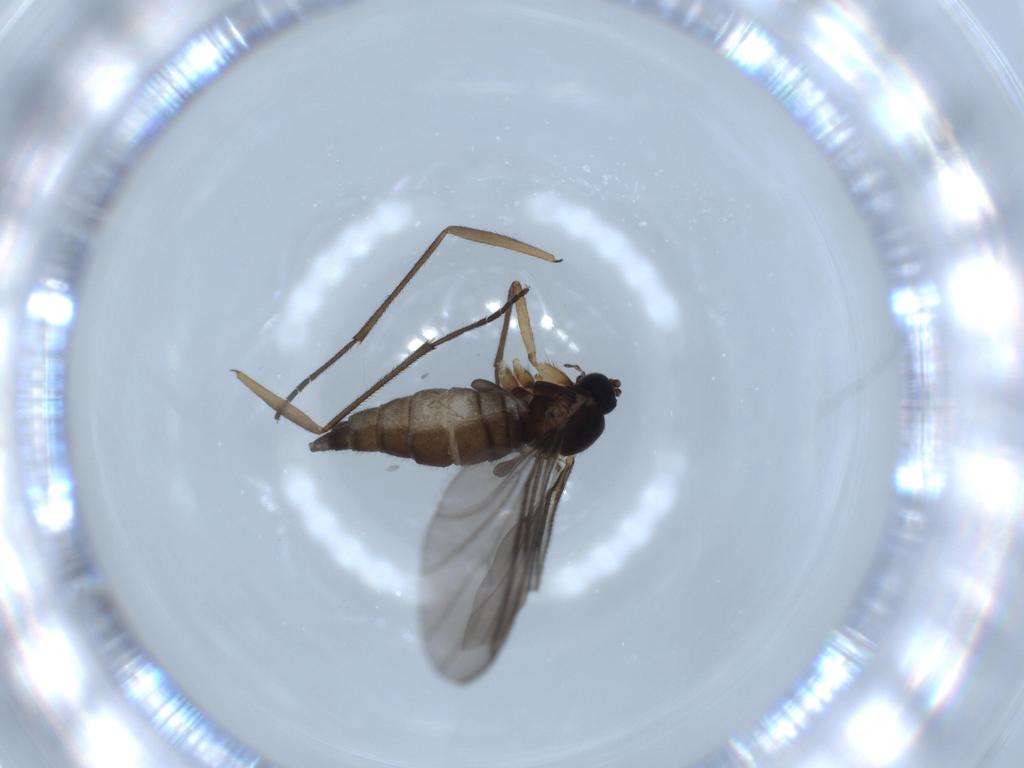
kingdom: Animalia
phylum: Arthropoda
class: Insecta
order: Diptera
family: Sciaridae
